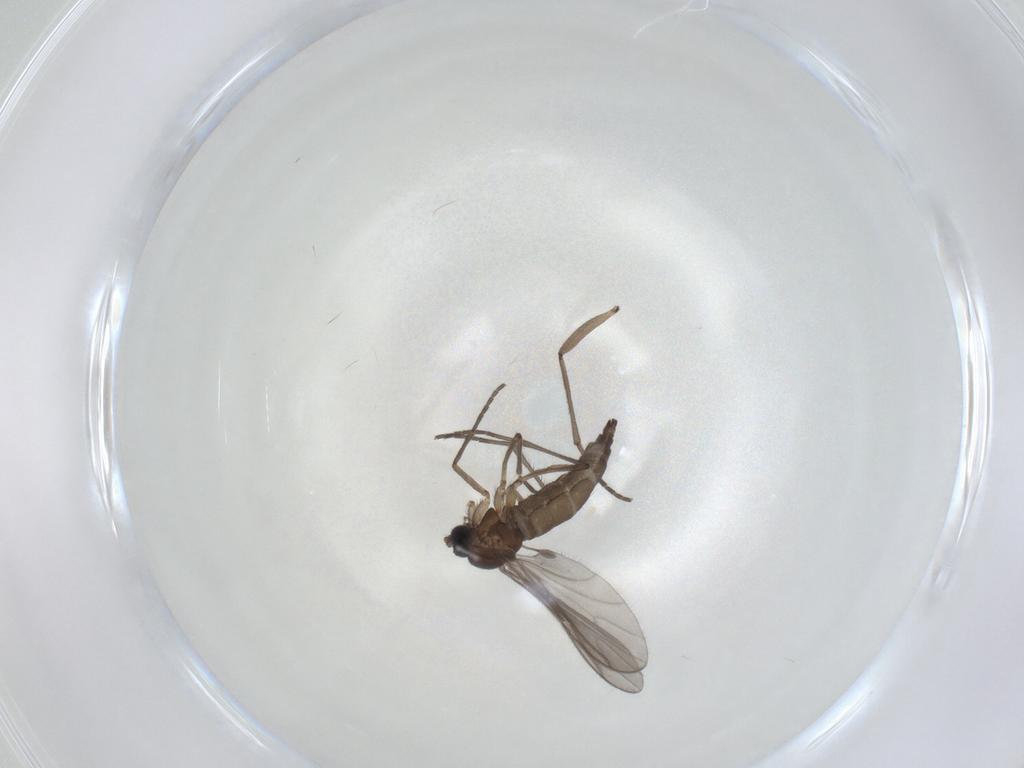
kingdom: Animalia
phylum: Arthropoda
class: Insecta
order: Diptera
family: Sciaridae
